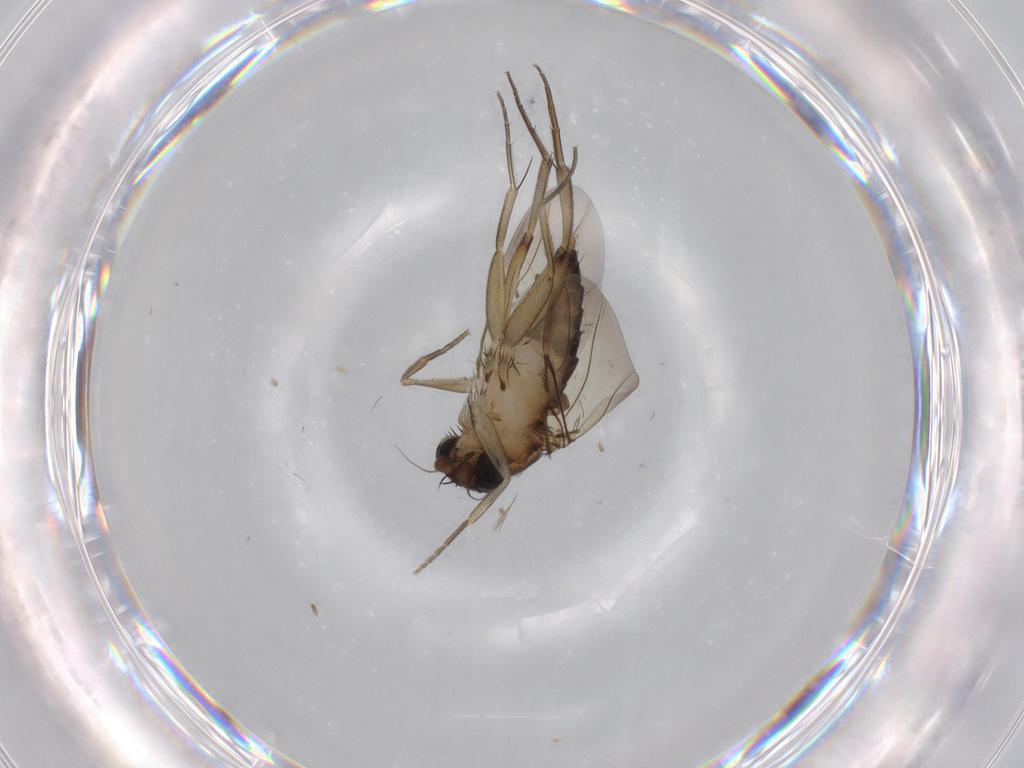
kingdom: Animalia
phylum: Arthropoda
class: Insecta
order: Diptera
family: Phoridae
